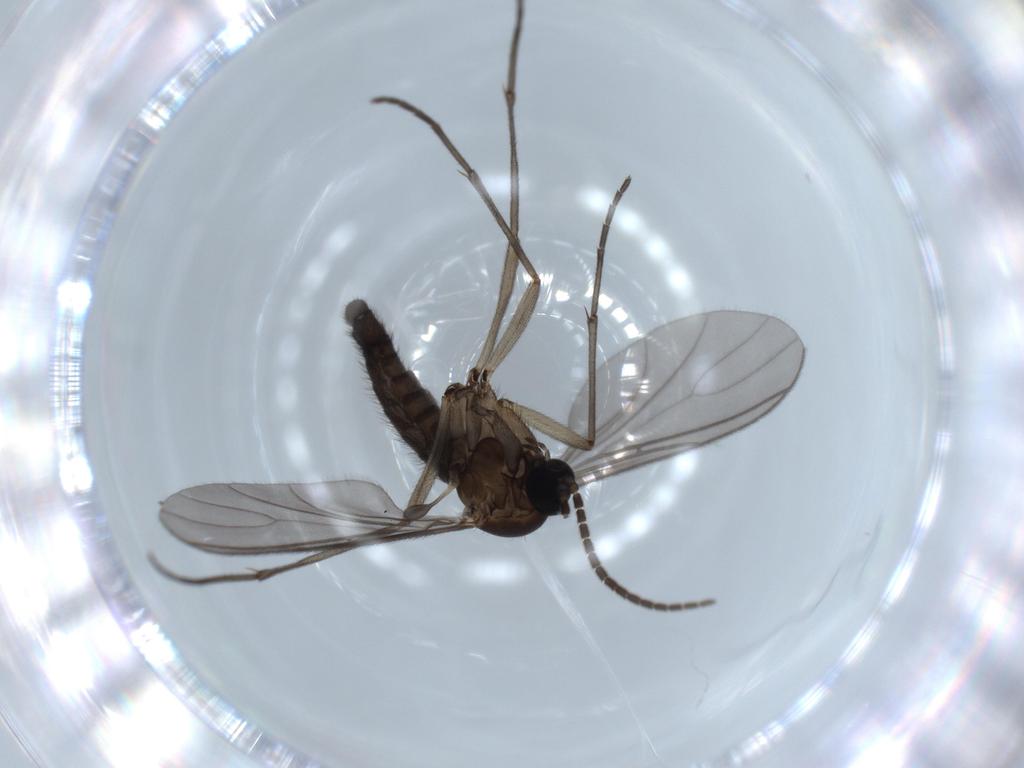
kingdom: Animalia
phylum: Arthropoda
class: Insecta
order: Diptera
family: Sciaridae
